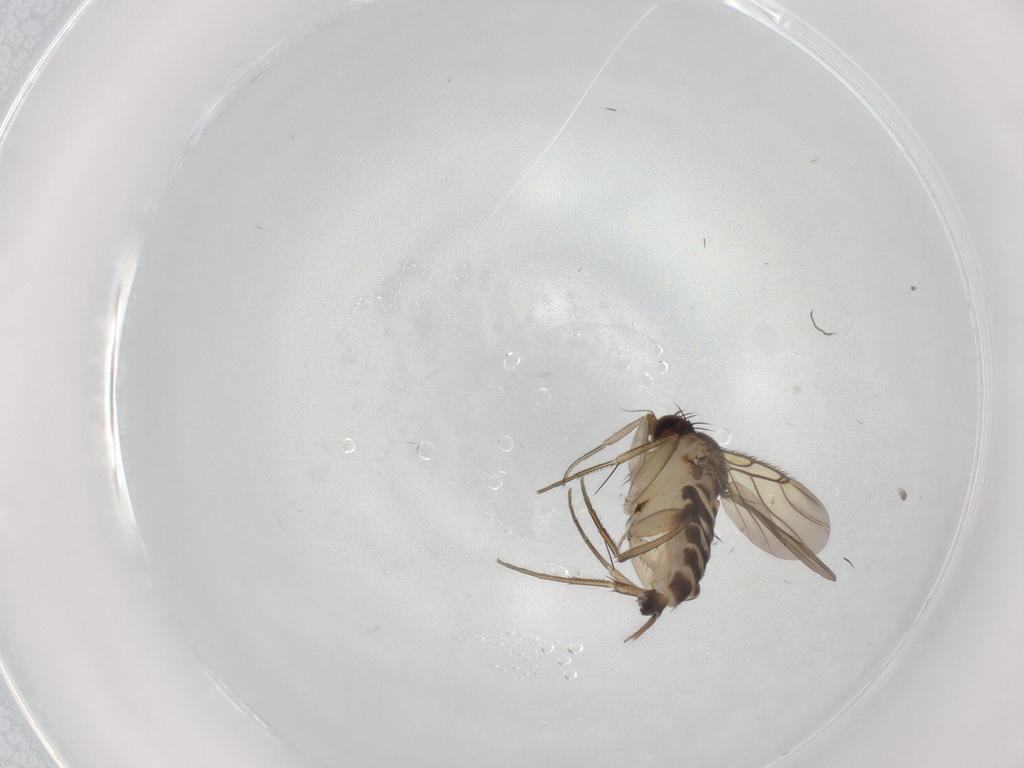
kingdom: Animalia
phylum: Arthropoda
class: Insecta
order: Diptera
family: Phoridae
